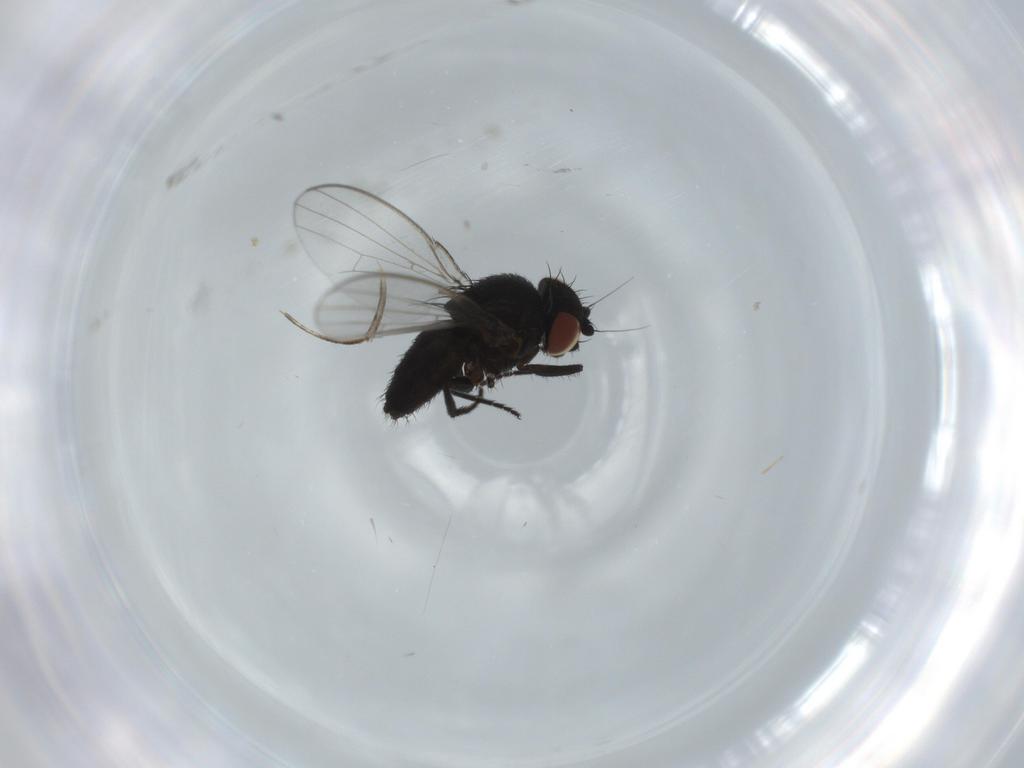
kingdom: Animalia
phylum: Arthropoda
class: Insecta
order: Diptera
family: Milichiidae
